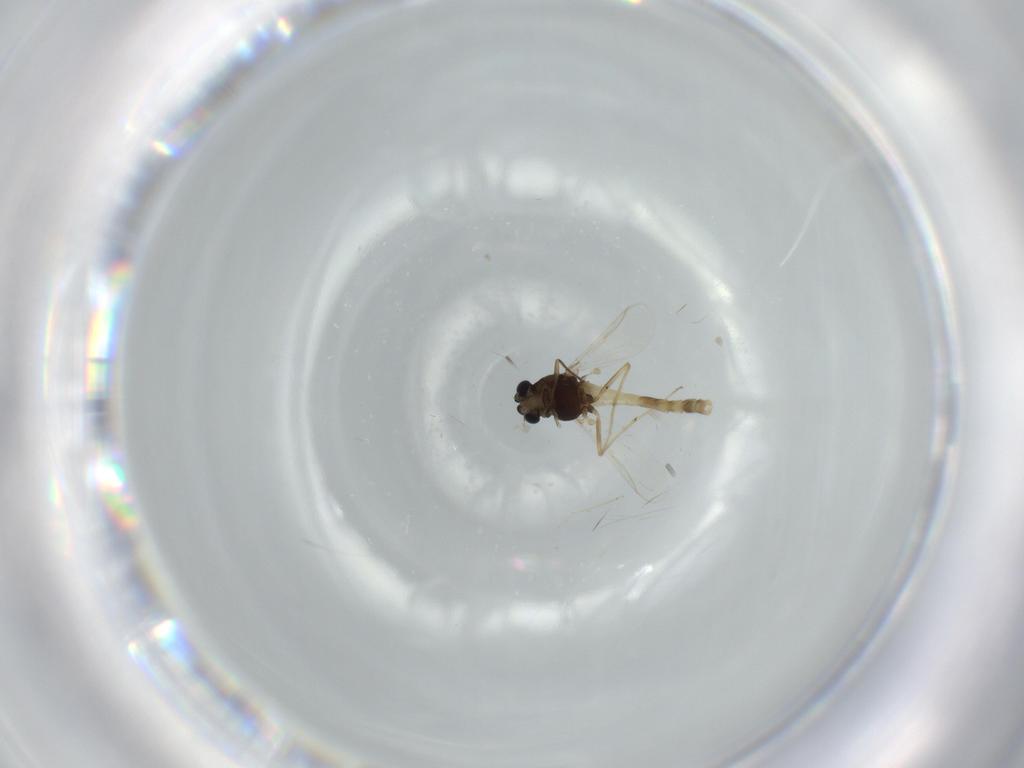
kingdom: Animalia
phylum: Arthropoda
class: Insecta
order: Diptera
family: Chironomidae
